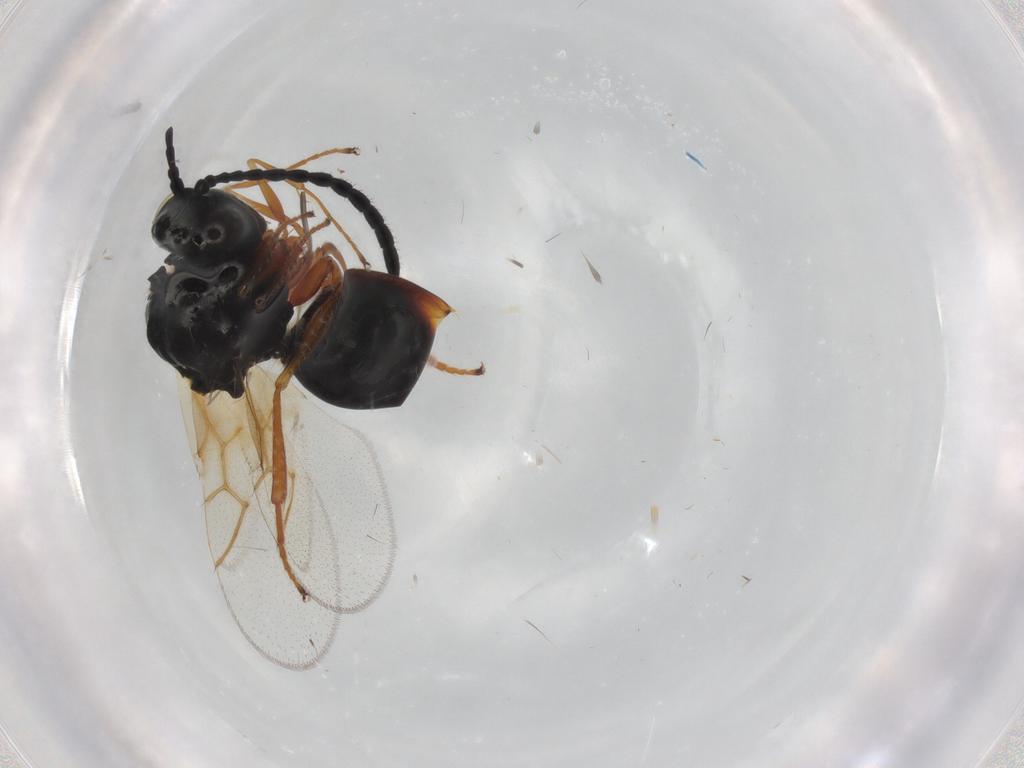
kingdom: Animalia
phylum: Arthropoda
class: Insecta
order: Hymenoptera
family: Figitidae
